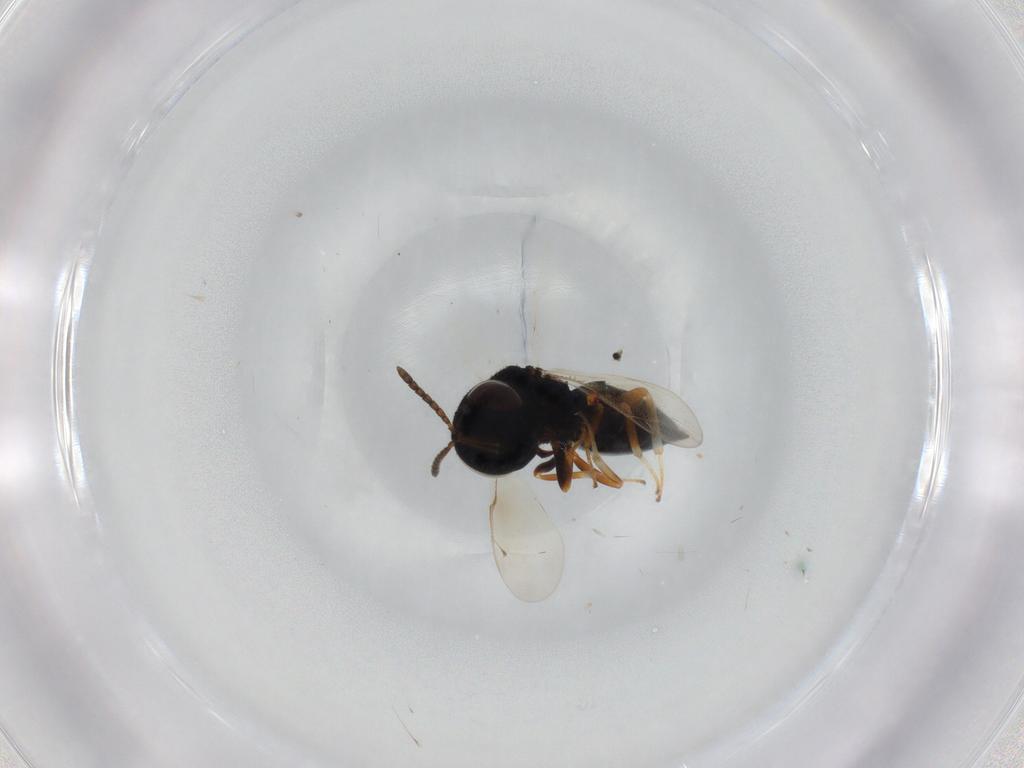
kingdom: Animalia
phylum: Arthropoda
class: Insecta
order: Hymenoptera
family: Pteromalidae
